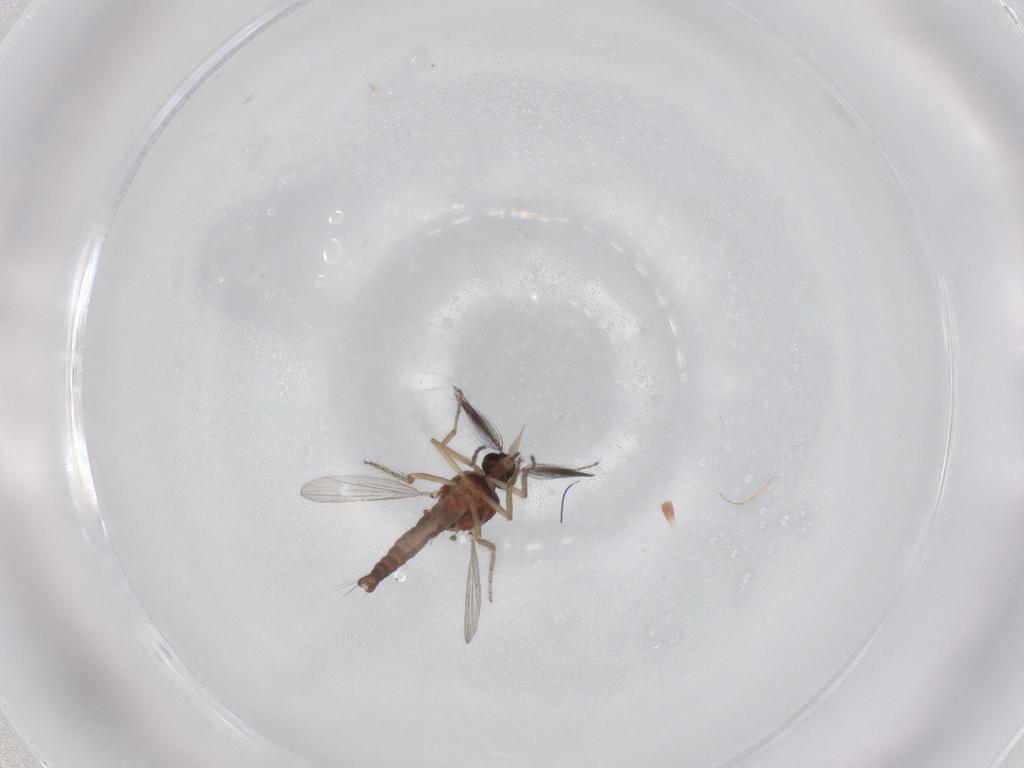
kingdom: Animalia
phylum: Arthropoda
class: Insecta
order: Diptera
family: Ceratopogonidae
